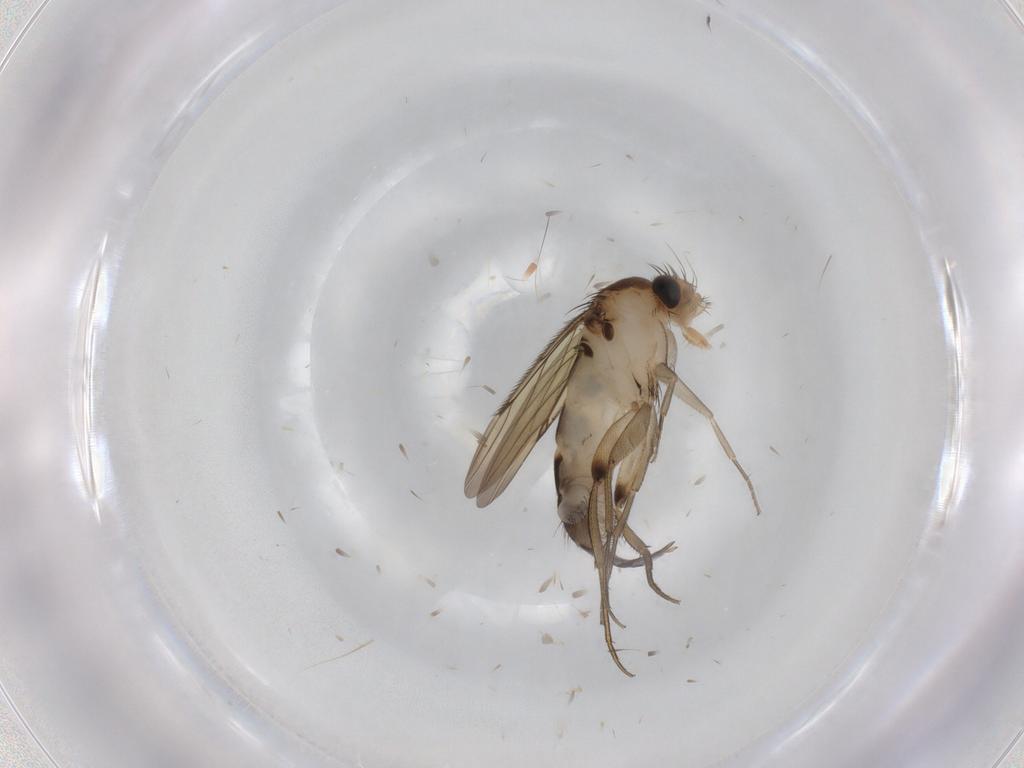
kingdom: Animalia
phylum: Arthropoda
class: Insecta
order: Diptera
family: Phoridae
